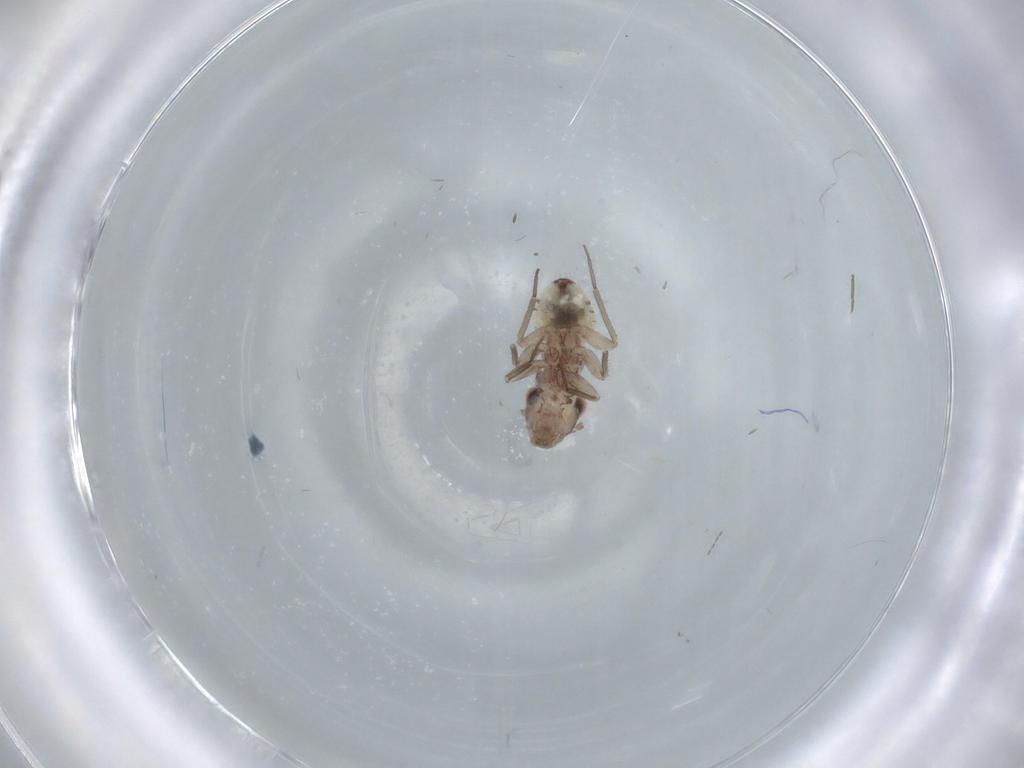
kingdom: Animalia
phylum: Arthropoda
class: Insecta
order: Psocodea
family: Lepidopsocidae
